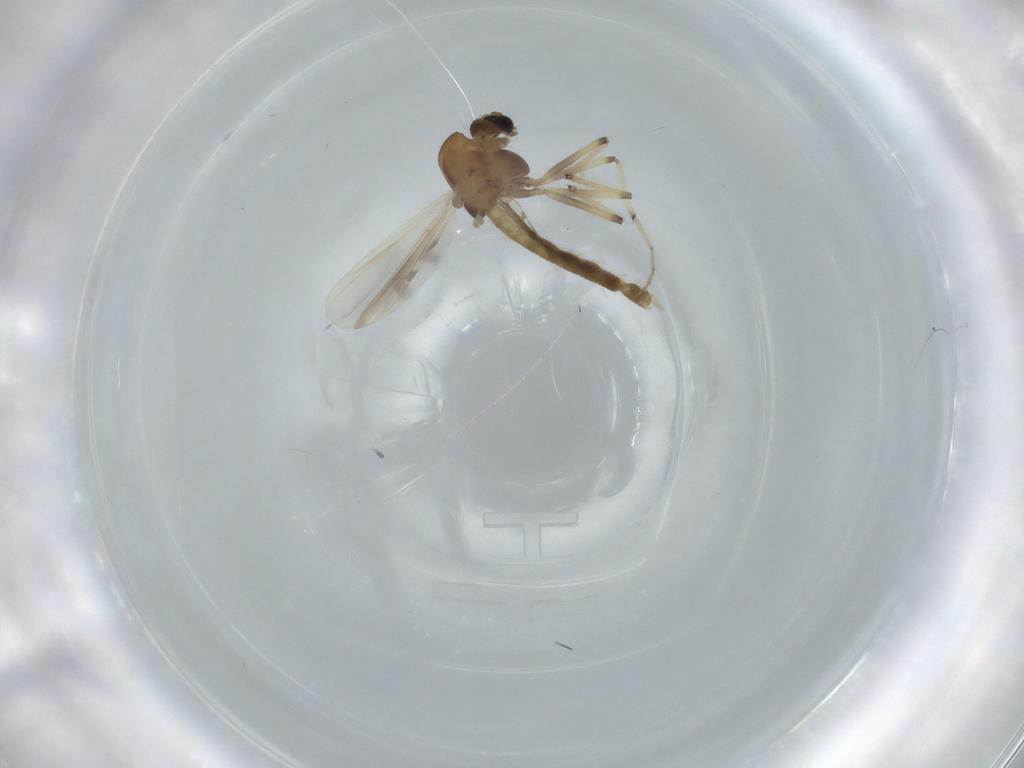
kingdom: Animalia
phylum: Arthropoda
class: Insecta
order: Diptera
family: Chironomidae
